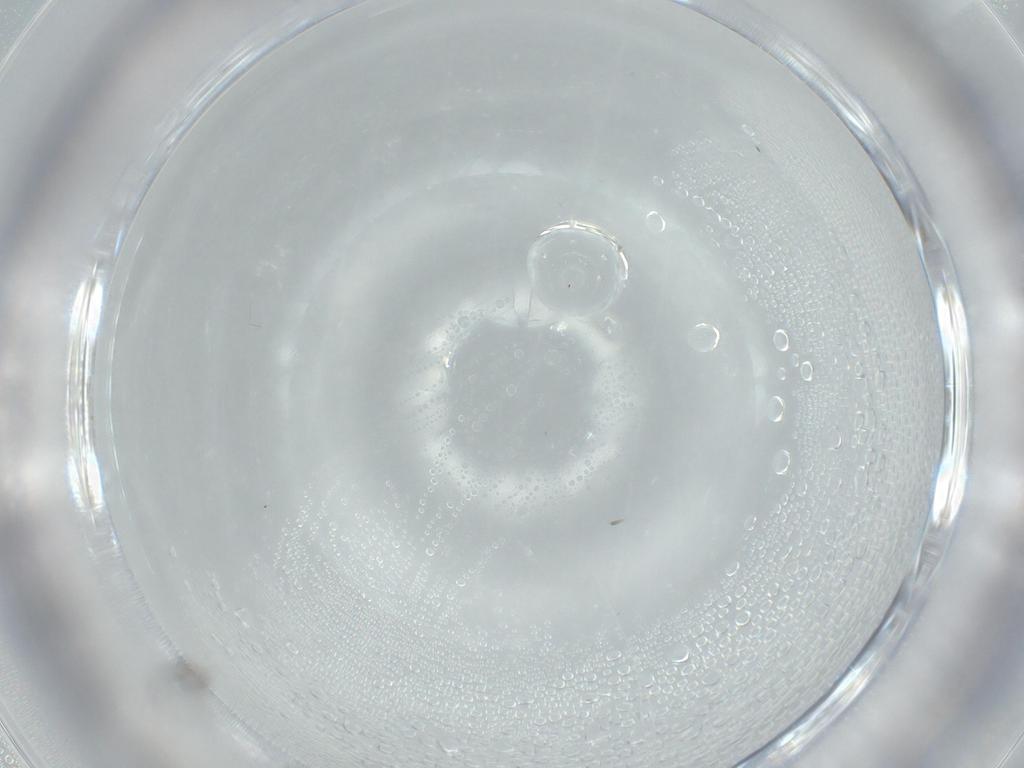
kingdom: Animalia
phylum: Arthropoda
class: Insecta
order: Hymenoptera
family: Mymaridae
